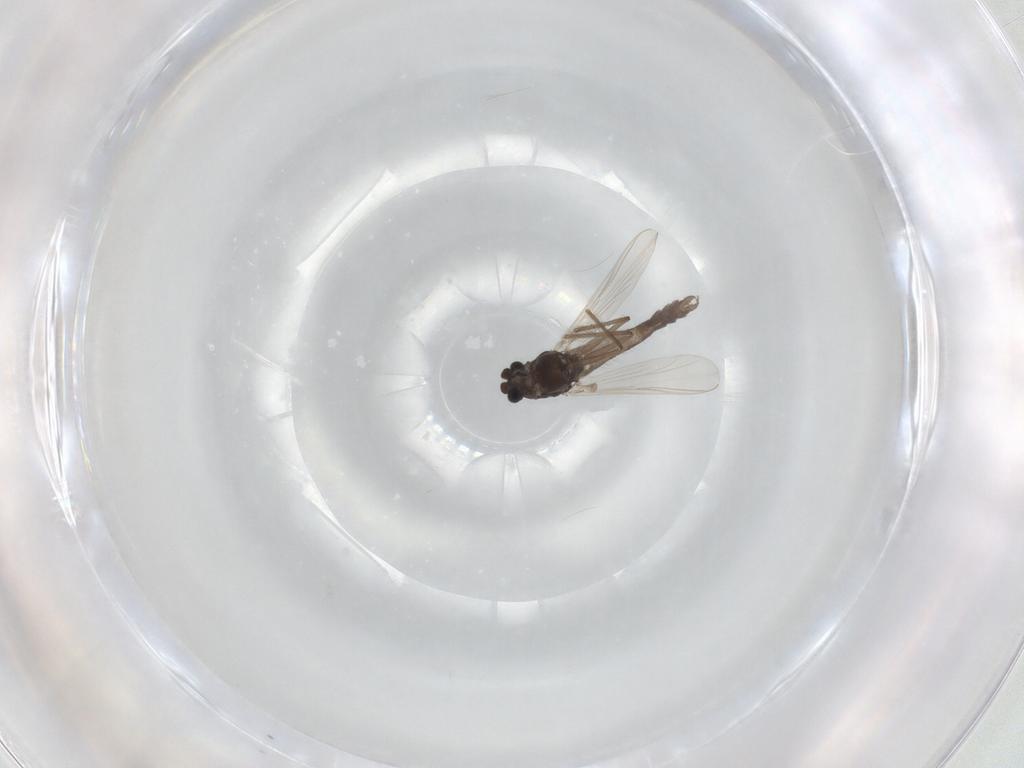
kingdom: Animalia
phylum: Arthropoda
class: Insecta
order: Diptera
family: Chironomidae
